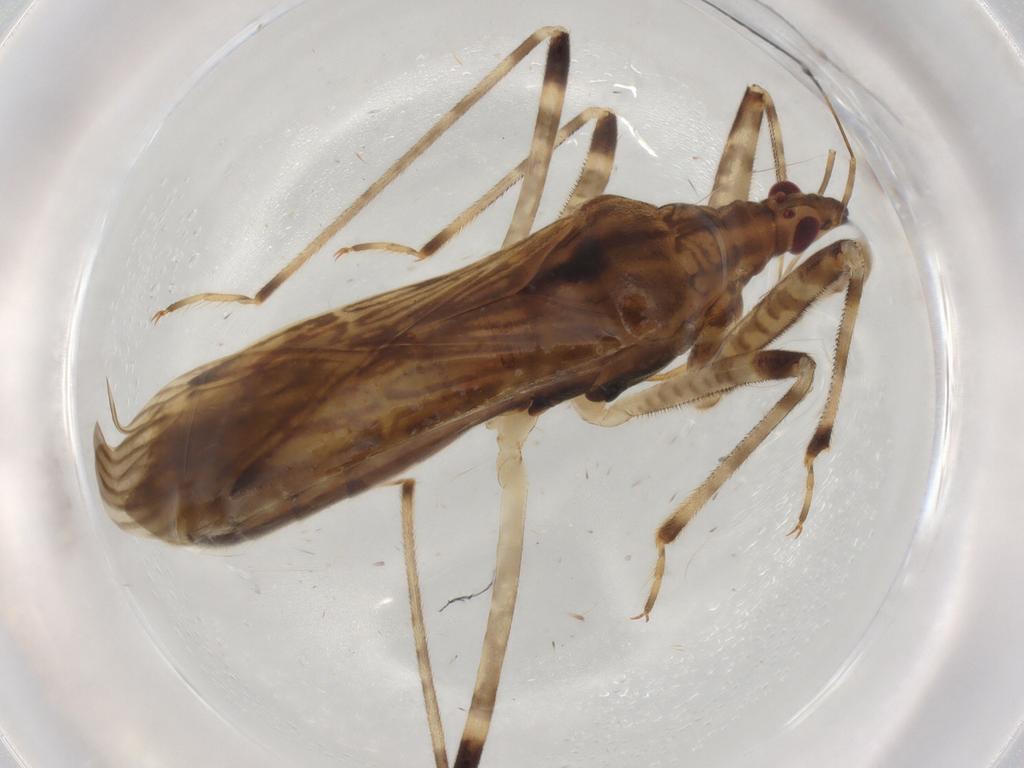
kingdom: Animalia
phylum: Arthropoda
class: Insecta
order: Hemiptera
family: Nabidae
